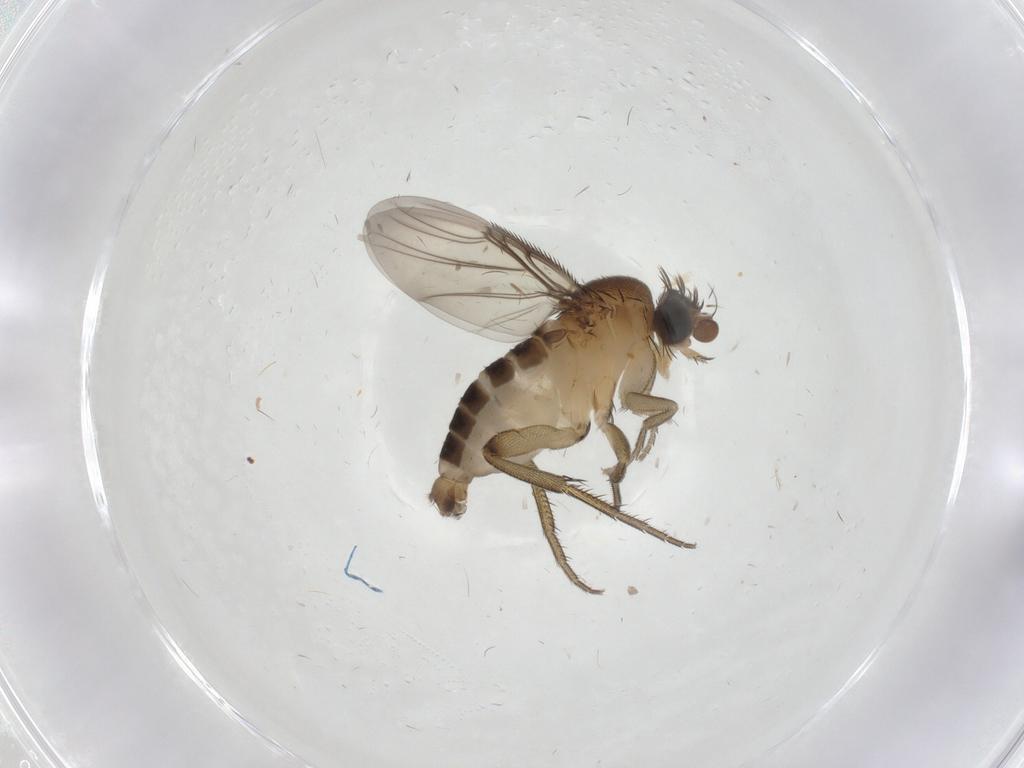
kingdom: Animalia
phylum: Arthropoda
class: Insecta
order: Diptera
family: Phoridae
